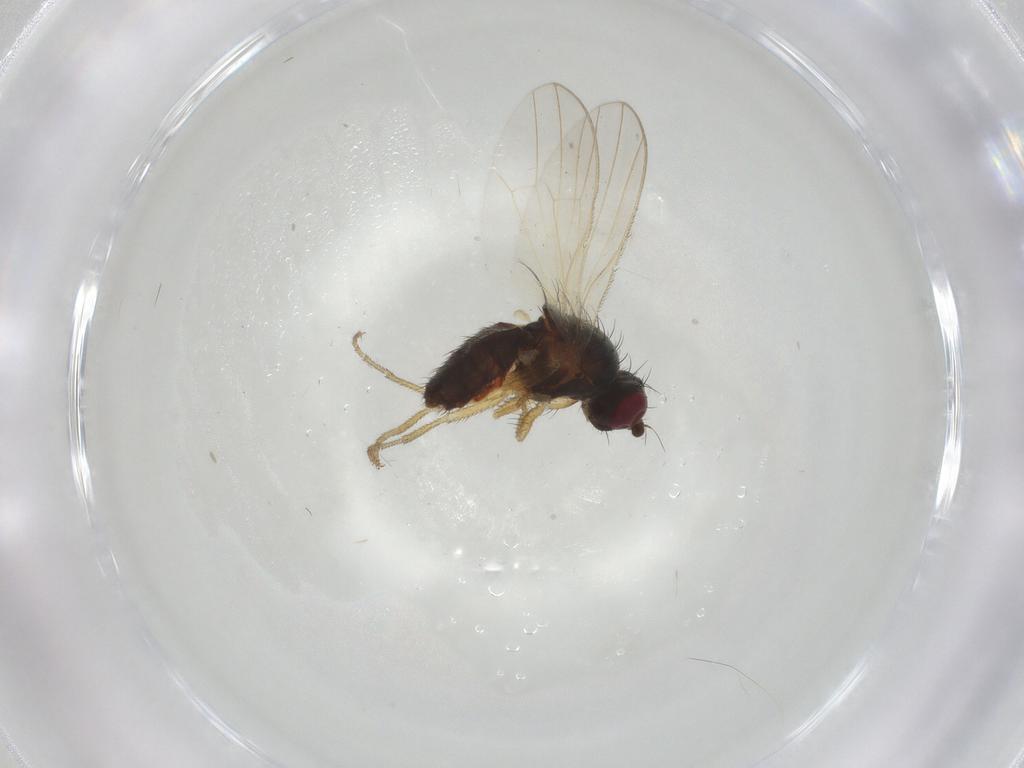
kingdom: Animalia
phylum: Arthropoda
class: Insecta
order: Diptera
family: Heleomyzidae
